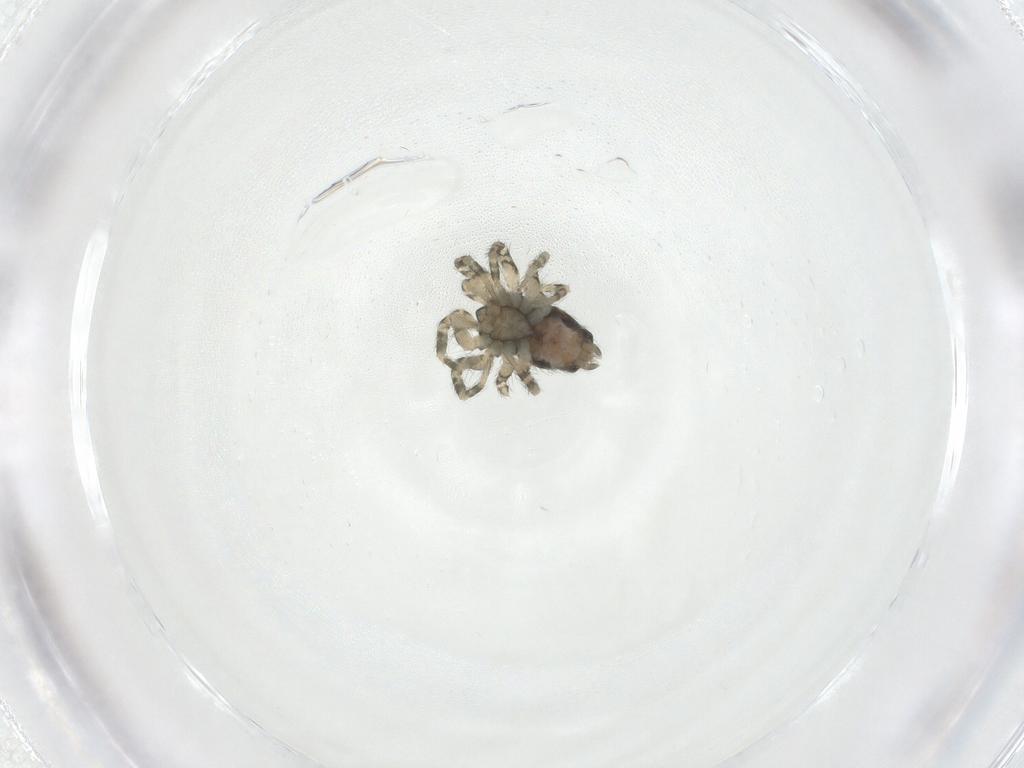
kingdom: Animalia
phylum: Arthropoda
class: Arachnida
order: Araneae
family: Oecobiidae
